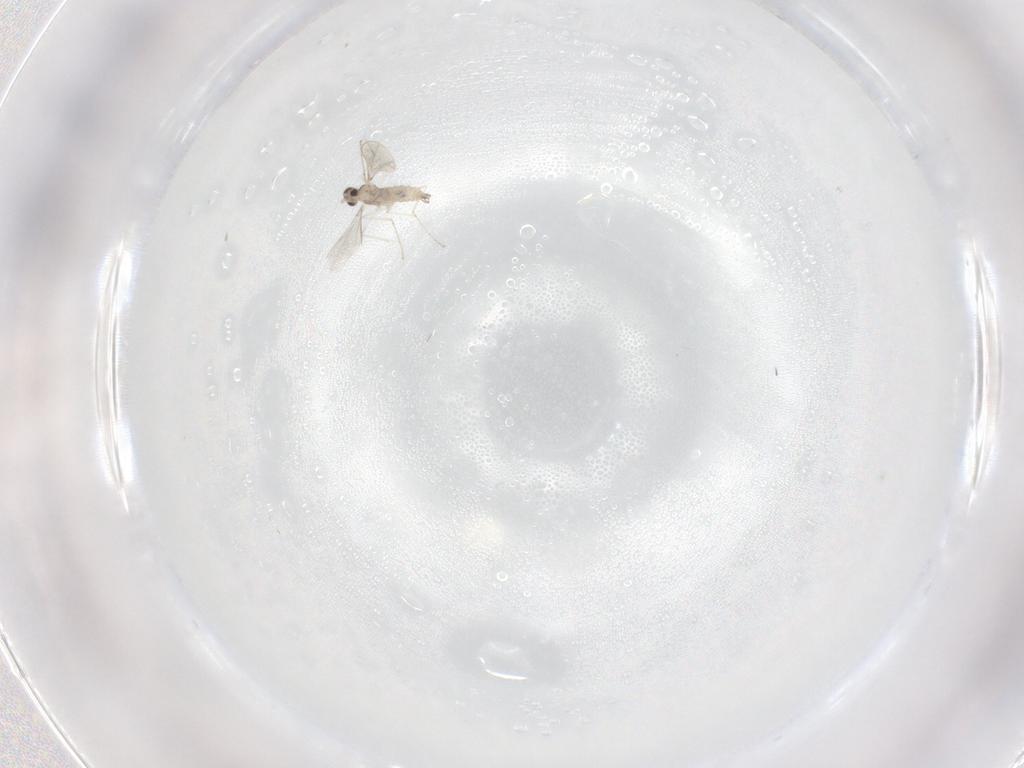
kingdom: Animalia
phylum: Arthropoda
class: Insecta
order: Diptera
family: Cecidomyiidae
